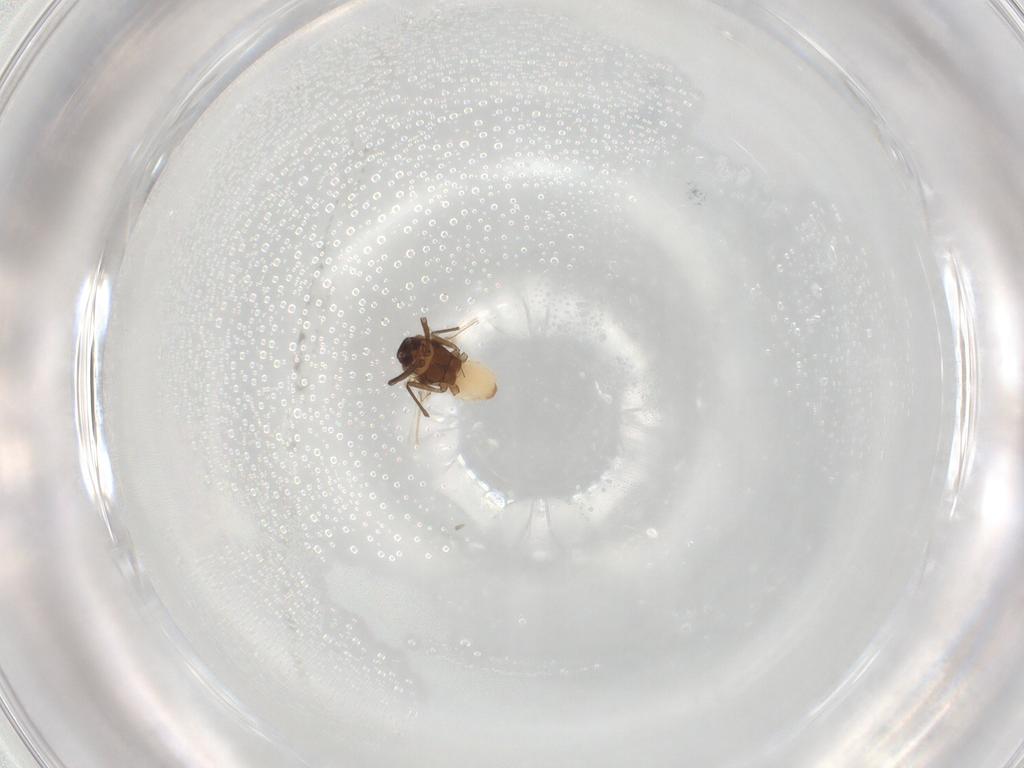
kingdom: Animalia
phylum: Arthropoda
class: Insecta
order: Hemiptera
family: Aphididae
